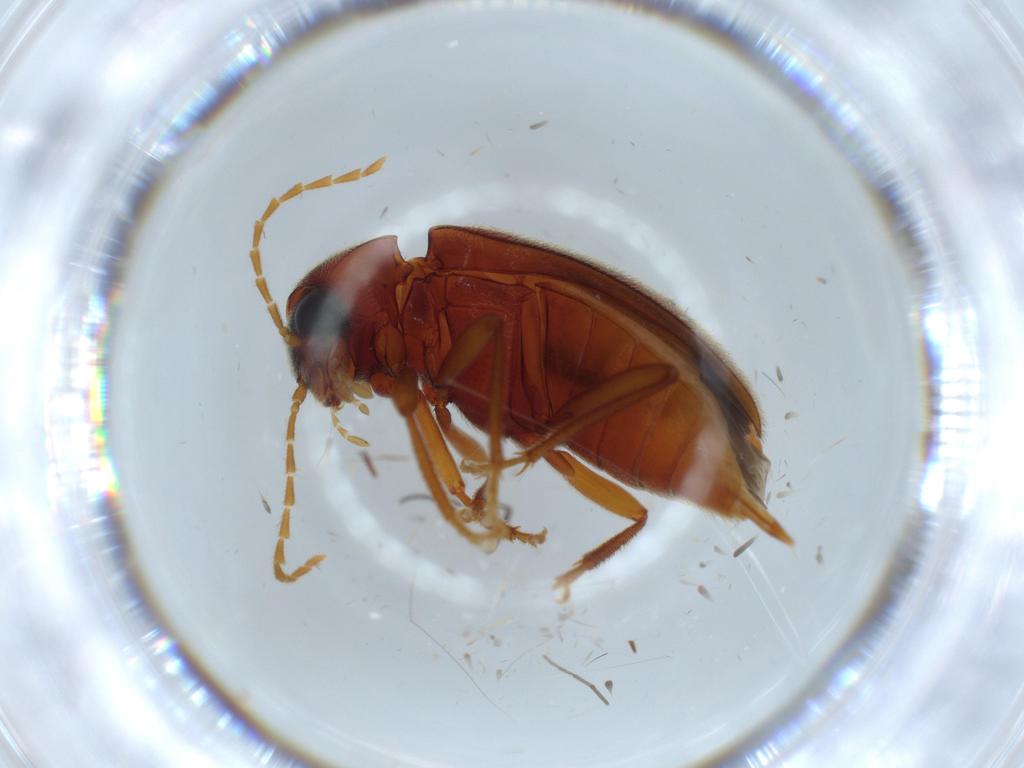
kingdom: Animalia
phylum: Arthropoda
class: Insecta
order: Coleoptera
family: Ptilodactylidae
